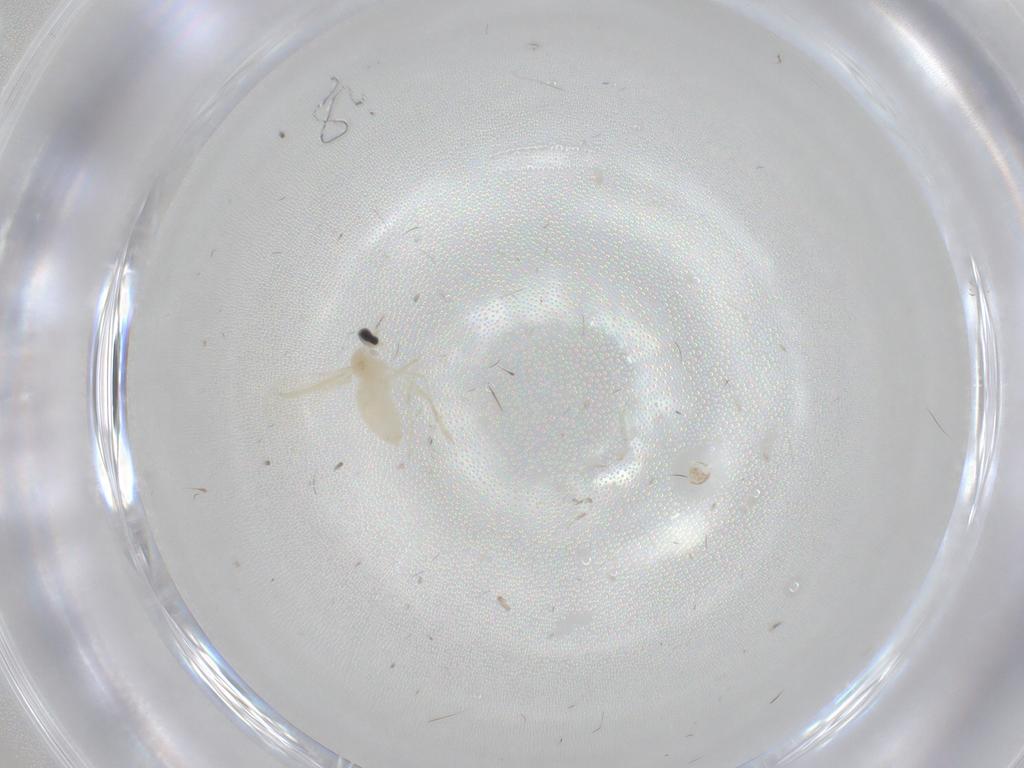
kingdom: Animalia
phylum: Arthropoda
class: Insecta
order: Diptera
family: Cecidomyiidae
